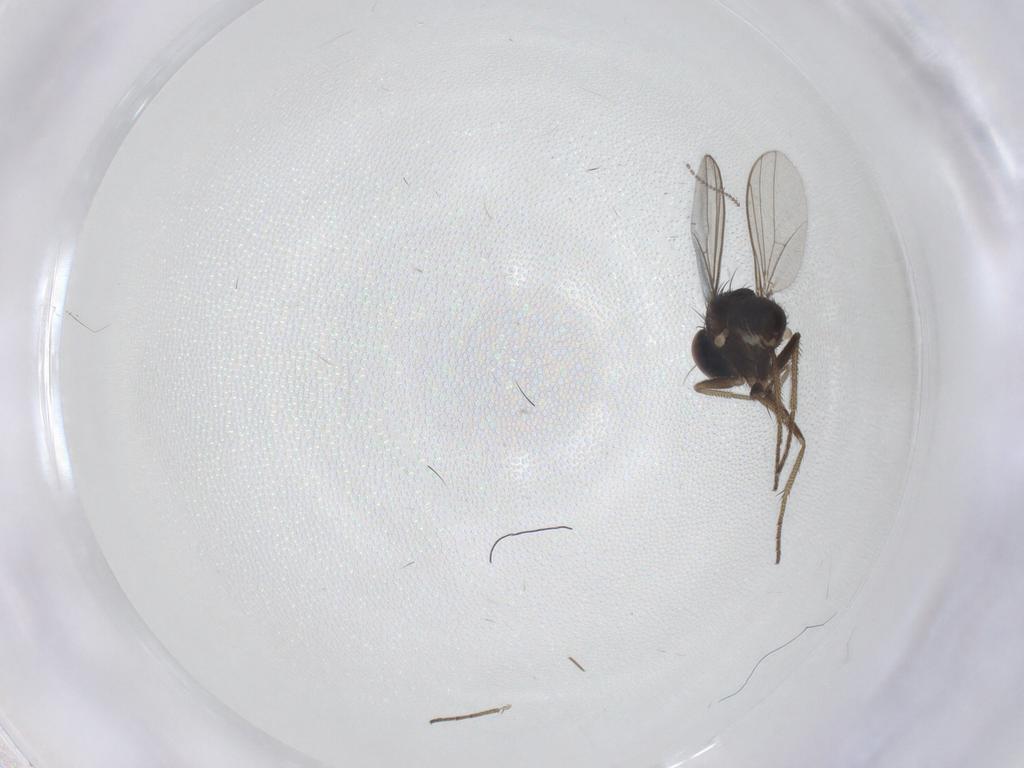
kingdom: Animalia
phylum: Arthropoda
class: Insecta
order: Diptera
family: Cecidomyiidae
